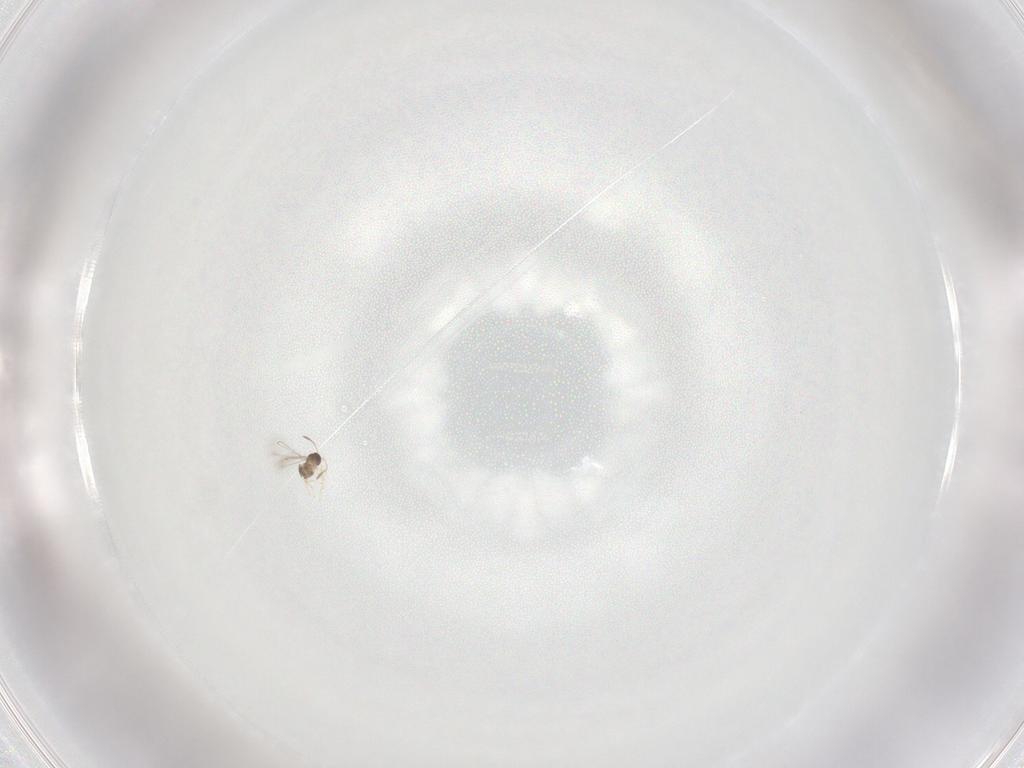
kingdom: Animalia
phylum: Arthropoda
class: Insecta
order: Hymenoptera
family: Mymaridae
